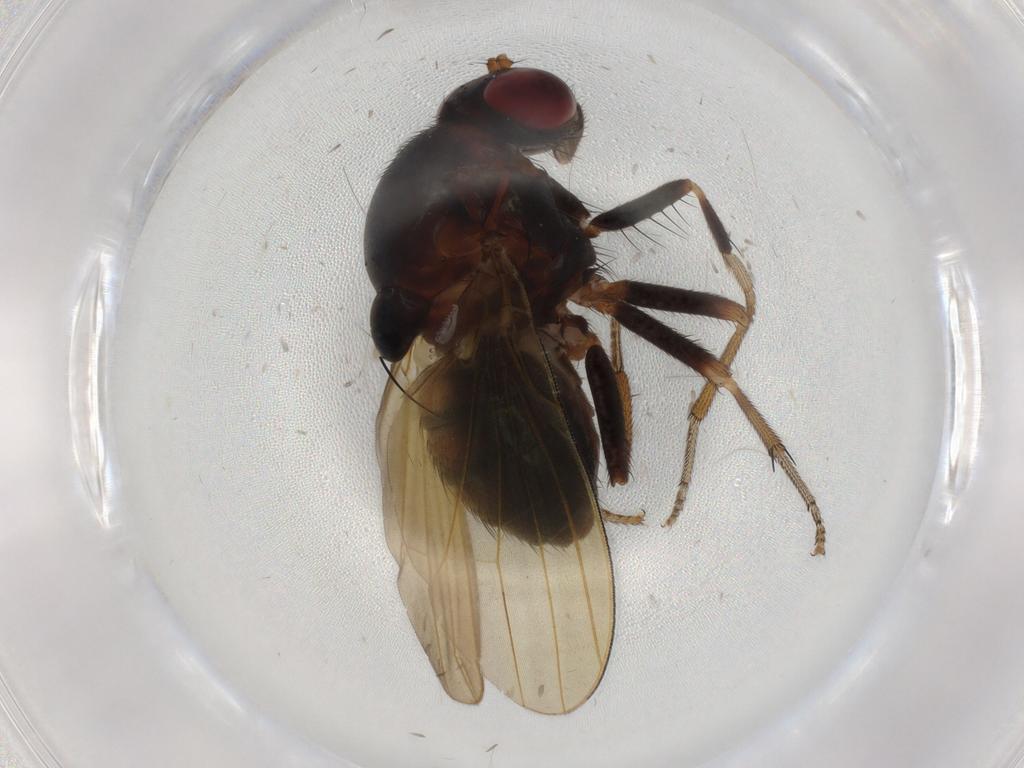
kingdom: Animalia
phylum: Arthropoda
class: Insecta
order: Diptera
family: Lauxaniidae
